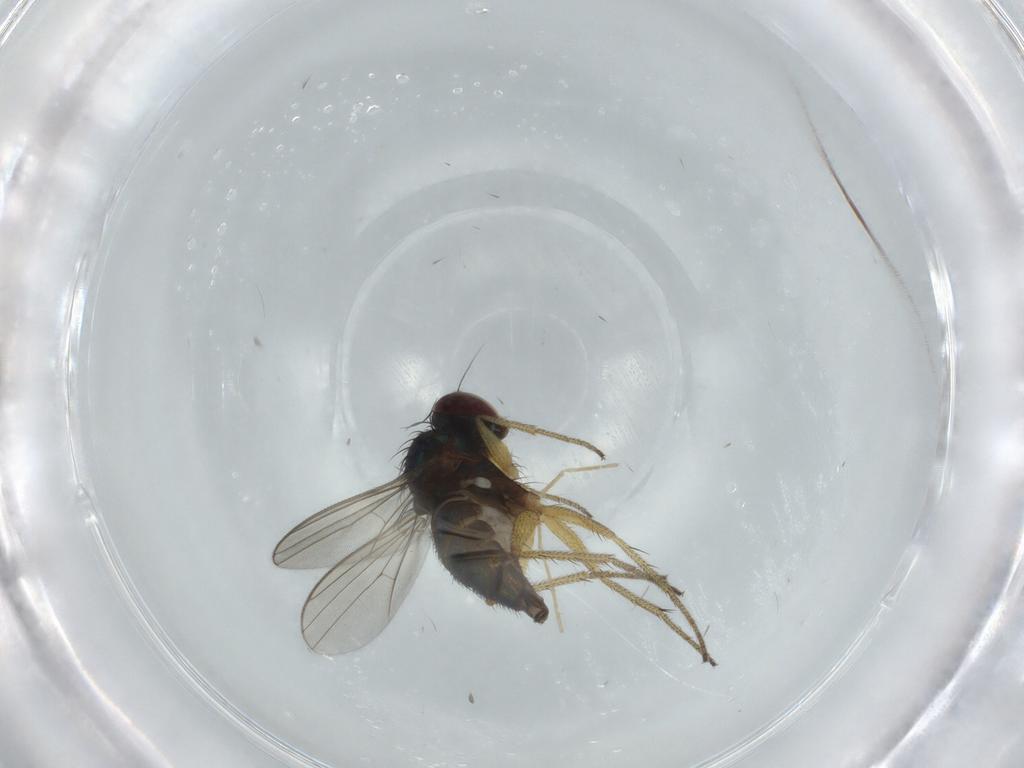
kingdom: Animalia
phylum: Arthropoda
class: Insecta
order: Diptera
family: Dolichopodidae
